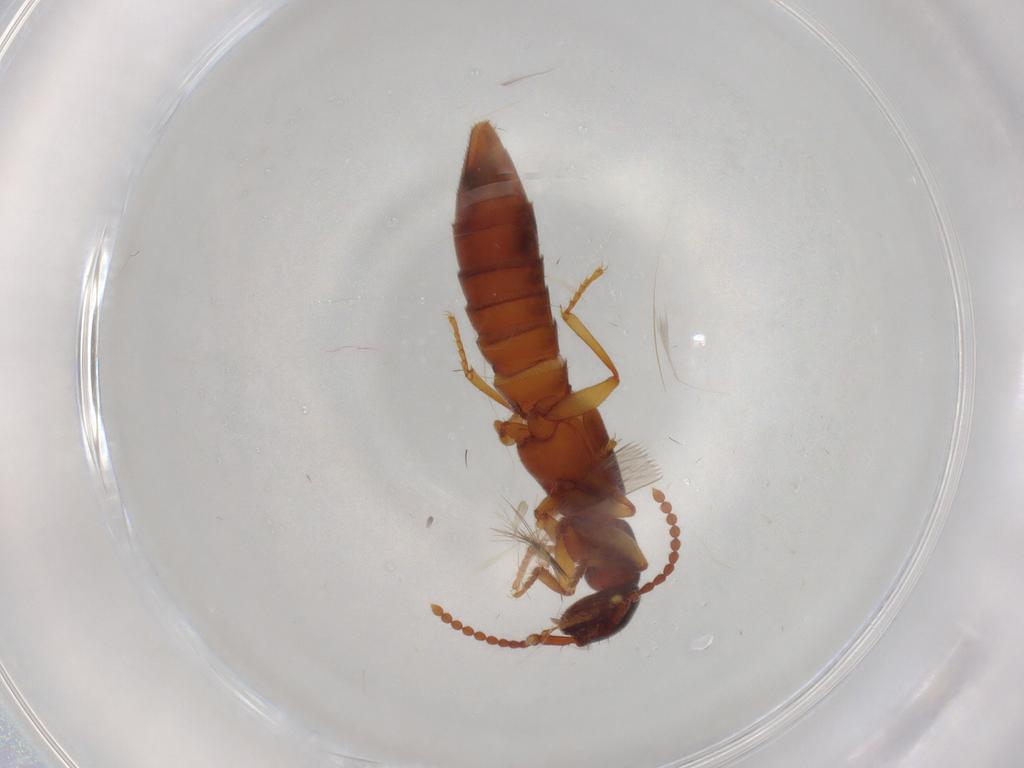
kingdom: Animalia
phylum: Arthropoda
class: Insecta
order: Coleoptera
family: Staphylinidae
